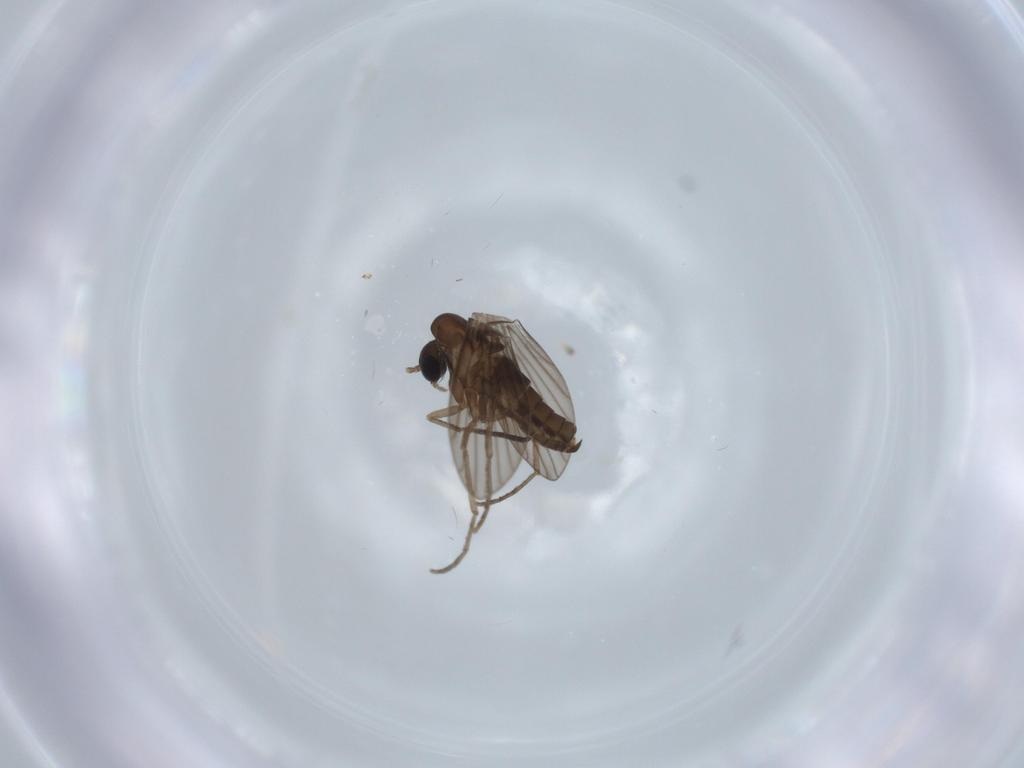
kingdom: Animalia
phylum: Arthropoda
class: Insecta
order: Diptera
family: Psychodidae
